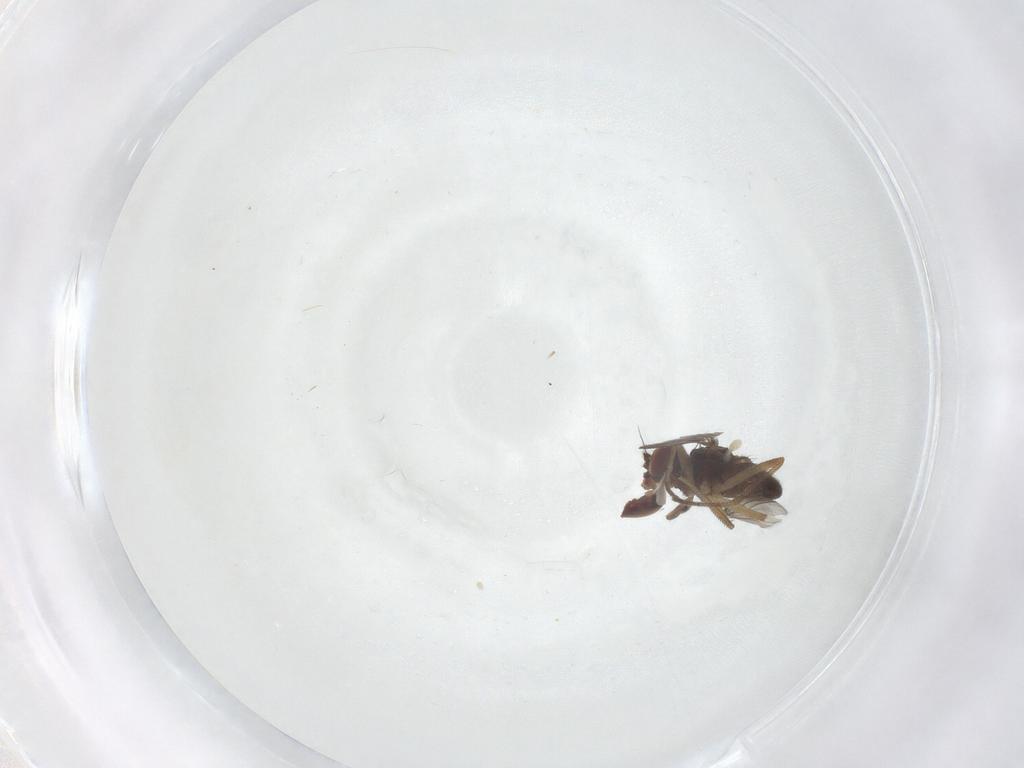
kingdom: Animalia
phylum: Arthropoda
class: Insecta
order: Diptera
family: Dolichopodidae
